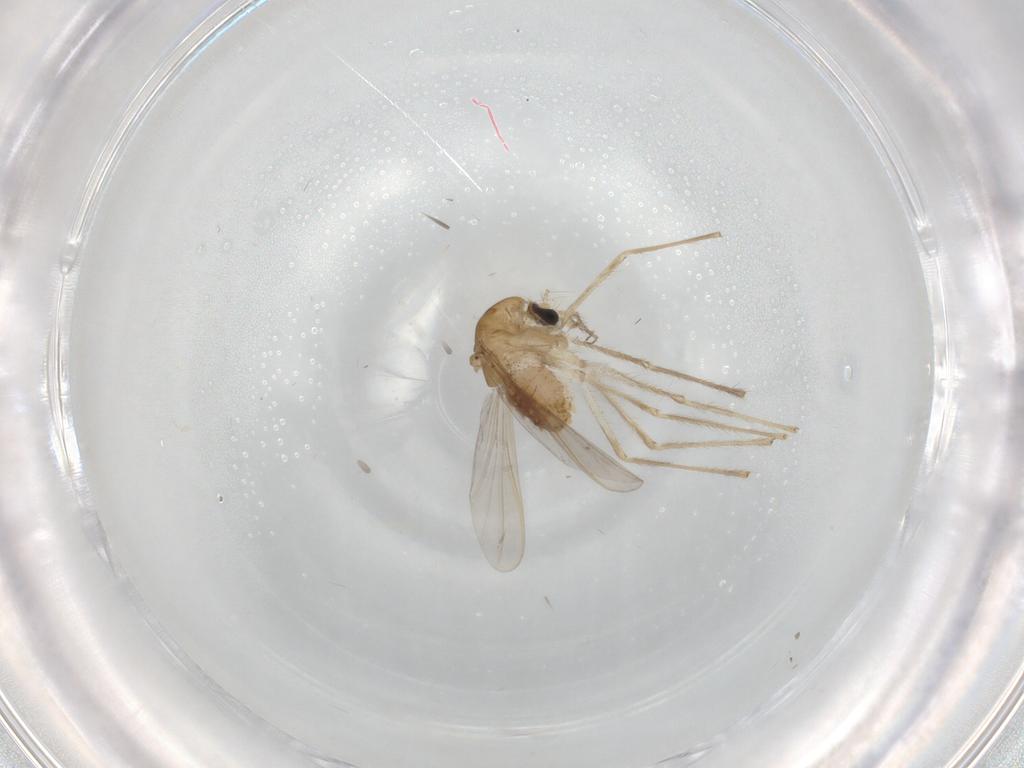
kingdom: Animalia
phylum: Arthropoda
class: Insecta
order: Diptera
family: Chironomidae
